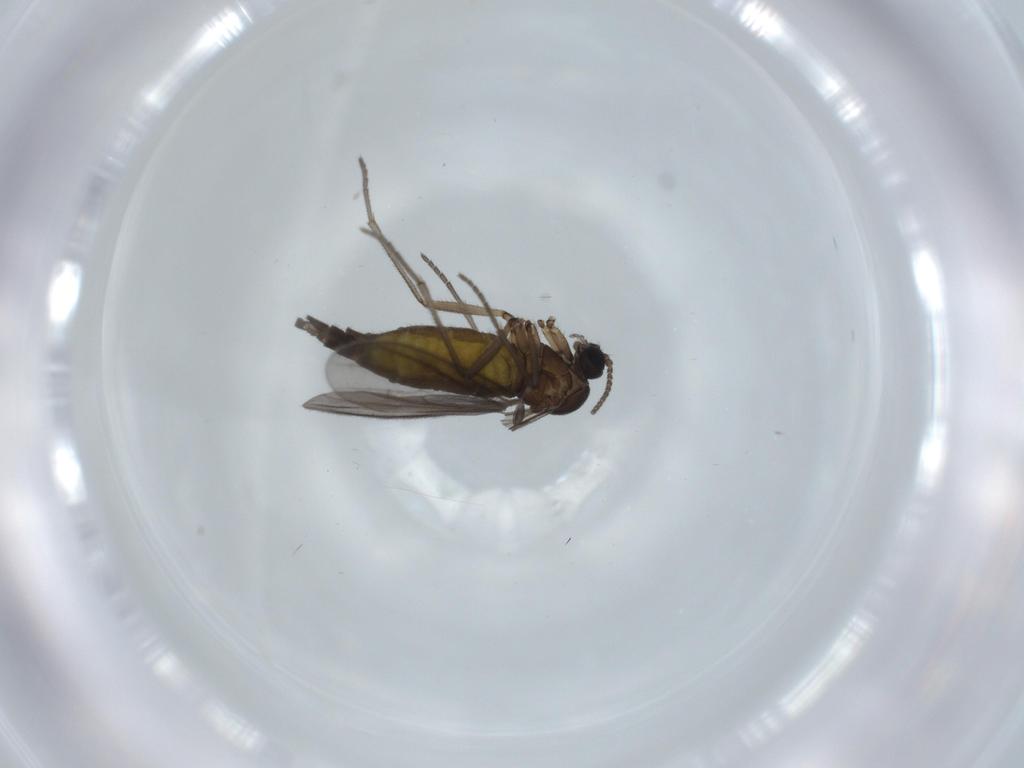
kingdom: Animalia
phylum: Arthropoda
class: Insecta
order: Diptera
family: Sciaridae
